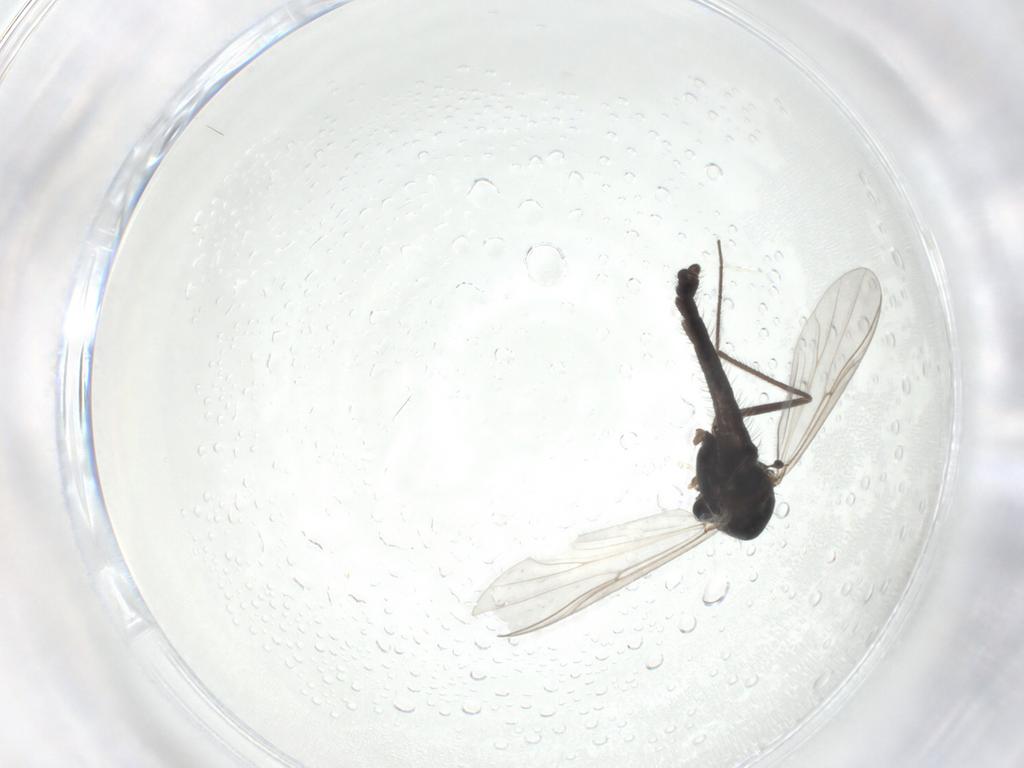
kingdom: Animalia
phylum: Arthropoda
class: Insecta
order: Diptera
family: Chironomidae
